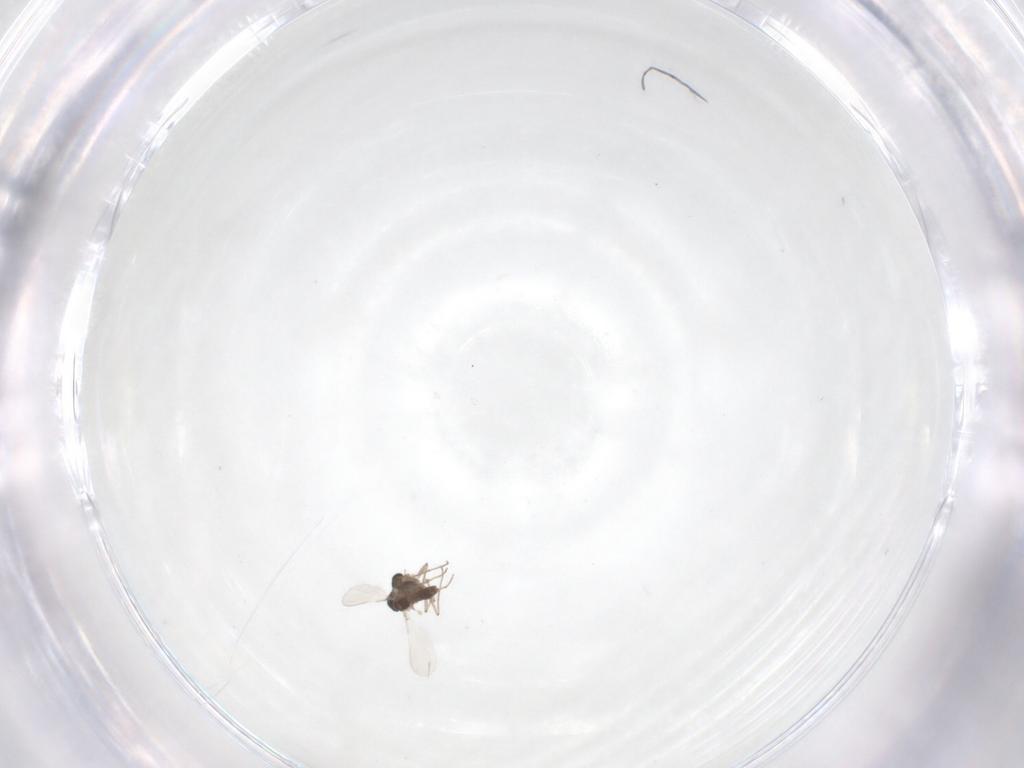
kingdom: Animalia
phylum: Arthropoda
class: Insecta
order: Diptera
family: Chironomidae
